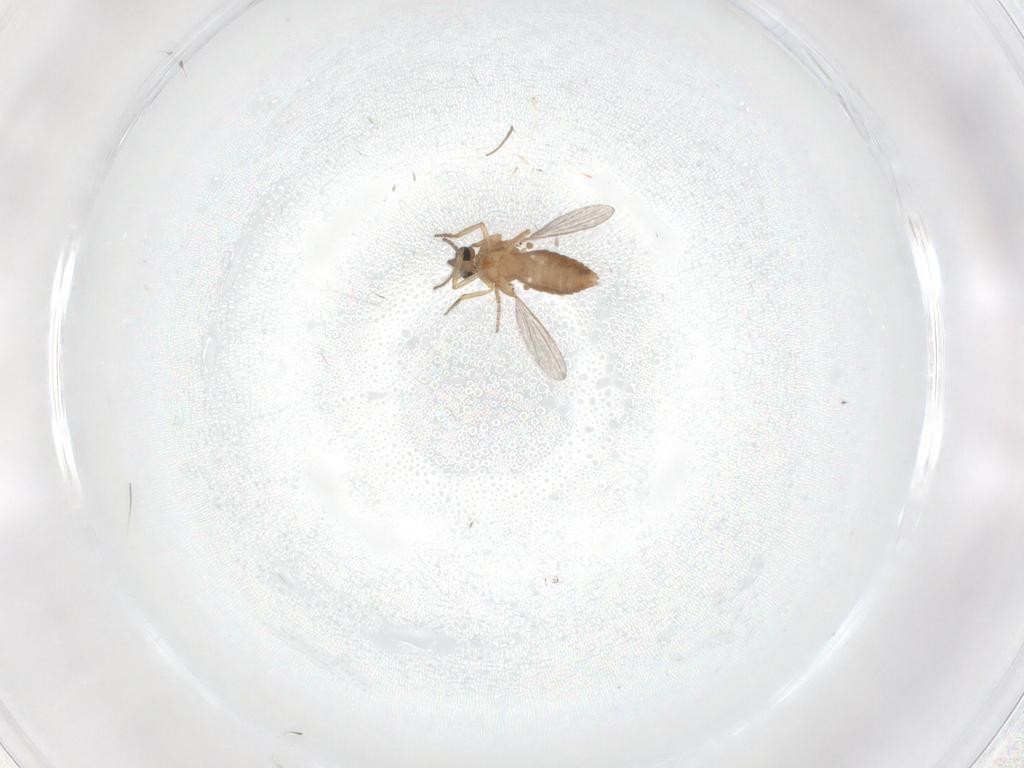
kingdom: Animalia
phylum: Arthropoda
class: Insecta
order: Diptera
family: Ceratopogonidae
